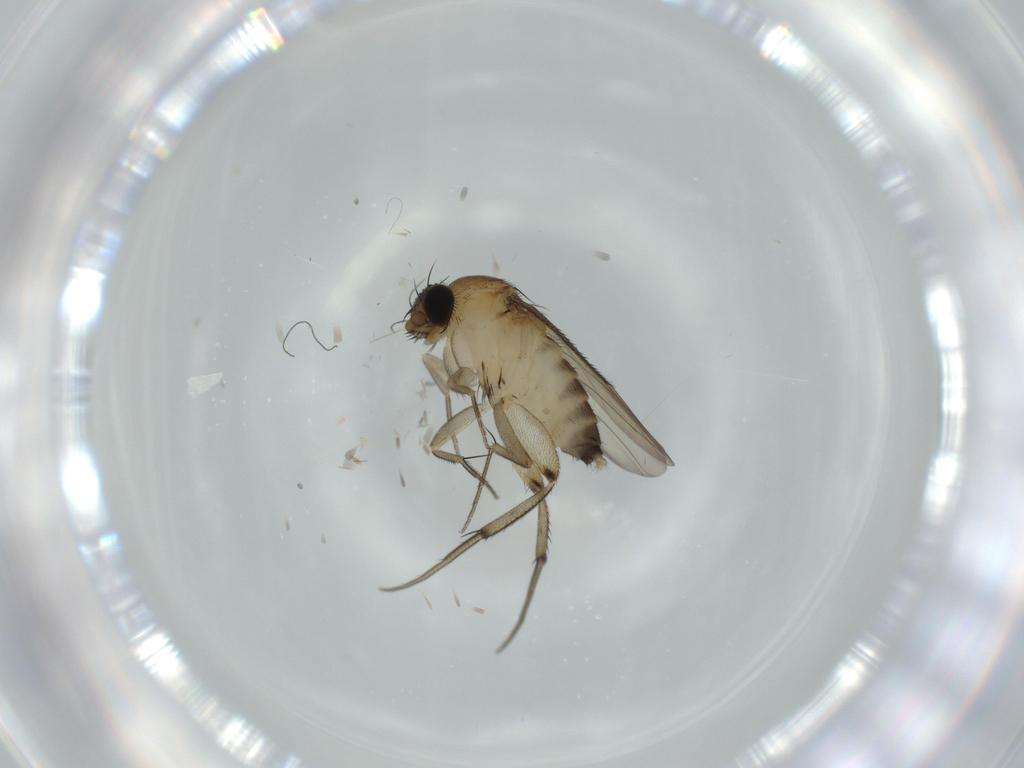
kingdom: Animalia
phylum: Arthropoda
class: Insecta
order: Diptera
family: Phoridae
